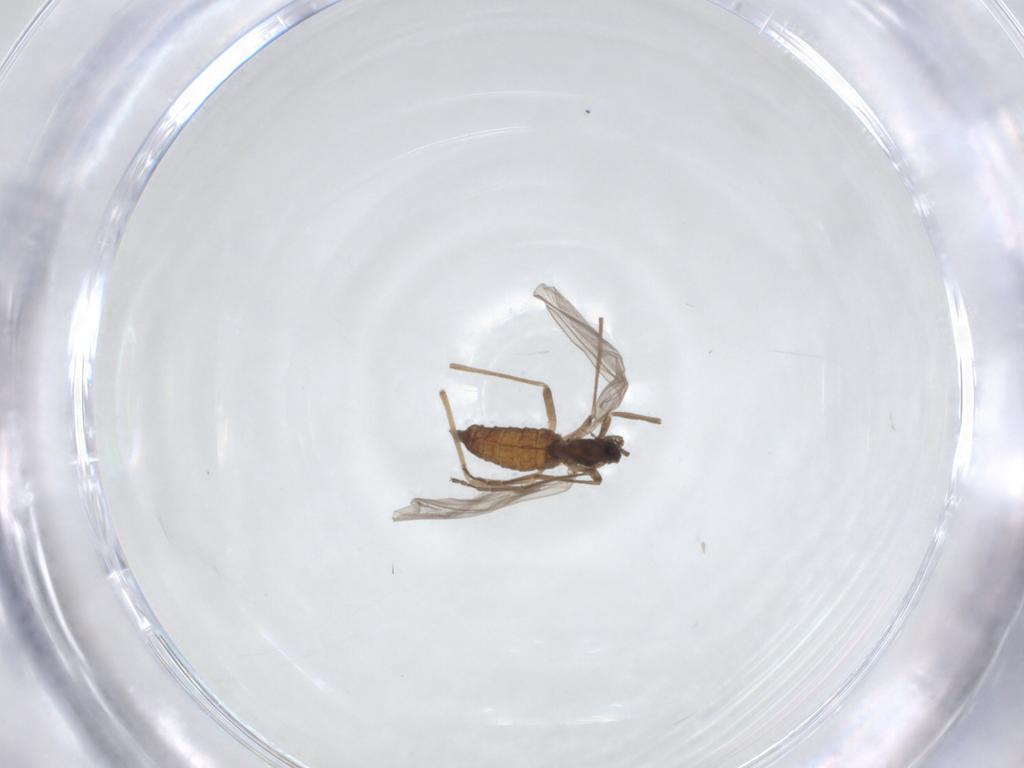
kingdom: Animalia
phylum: Arthropoda
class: Insecta
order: Diptera
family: Cecidomyiidae
